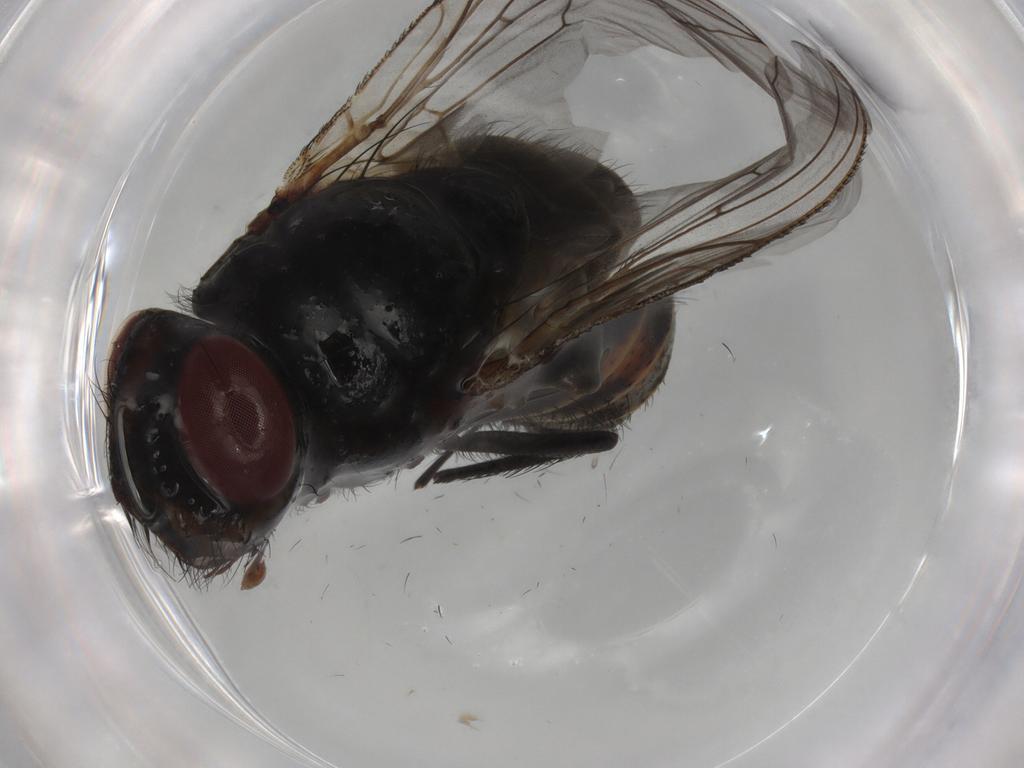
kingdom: Animalia
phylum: Arthropoda
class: Insecta
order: Diptera
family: Sarcophagidae
